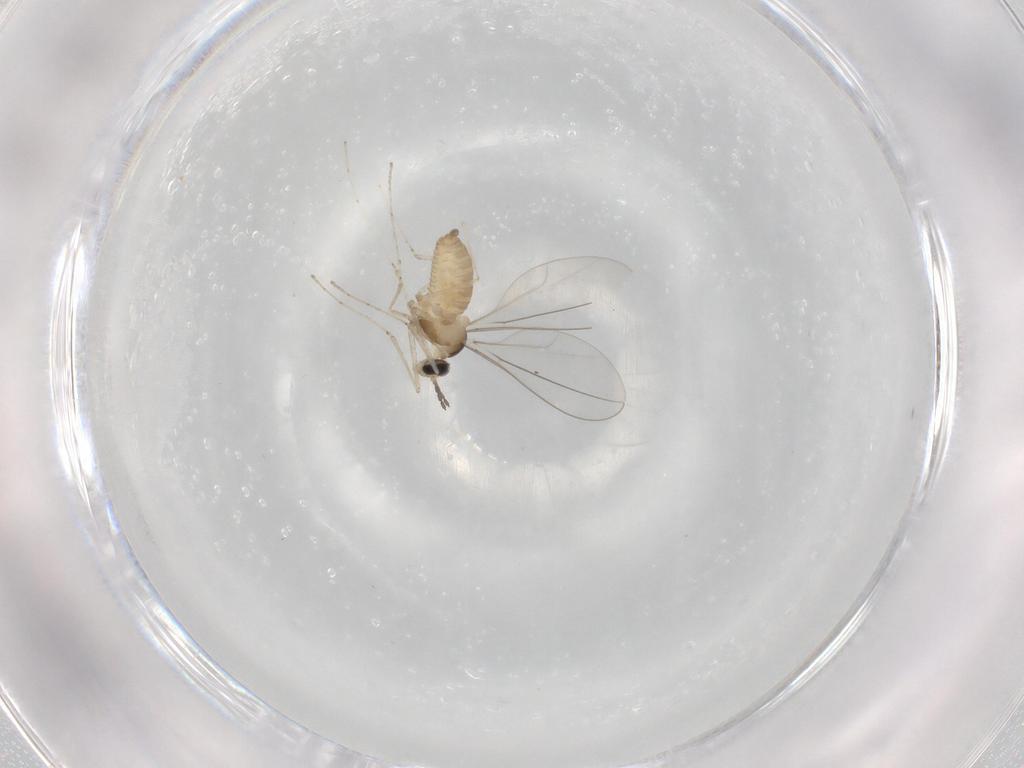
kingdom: Animalia
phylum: Arthropoda
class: Insecta
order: Diptera
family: Cecidomyiidae
